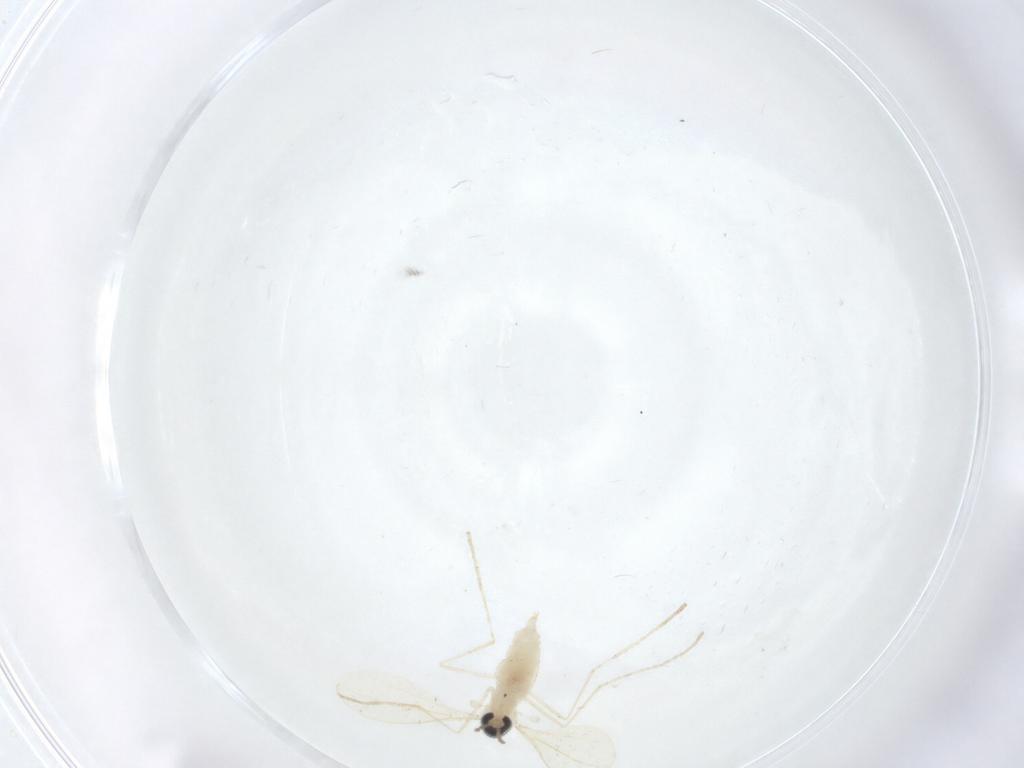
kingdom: Animalia
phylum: Arthropoda
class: Insecta
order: Diptera
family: Cecidomyiidae
